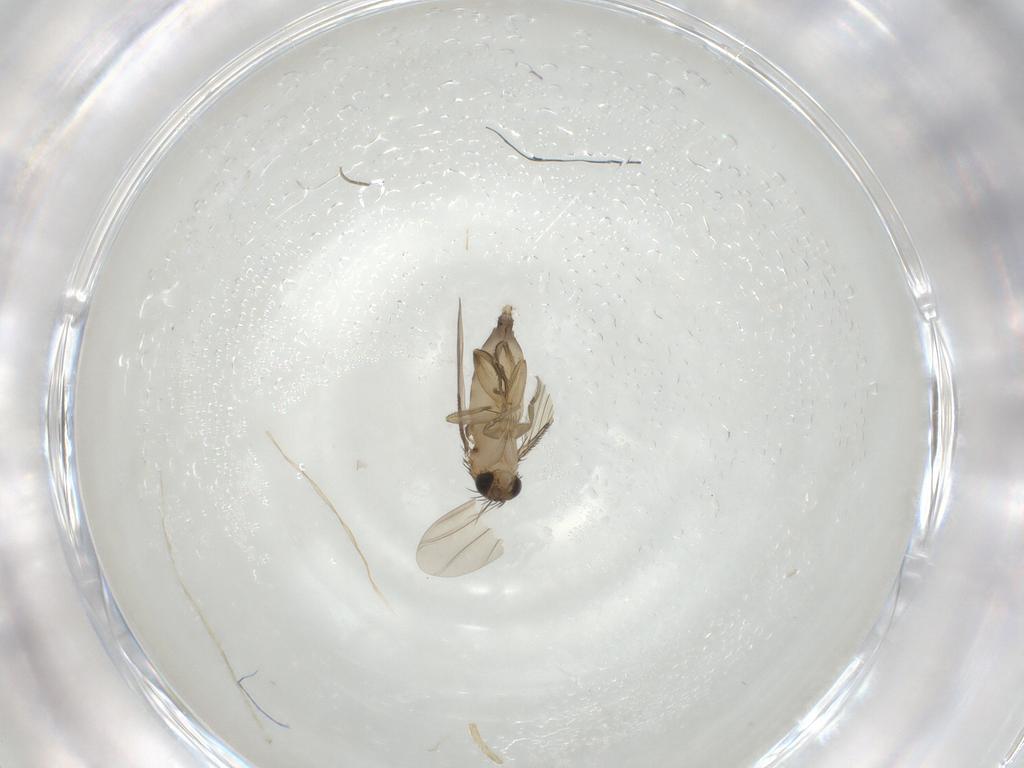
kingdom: Animalia
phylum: Arthropoda
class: Insecta
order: Diptera
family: Phoridae
